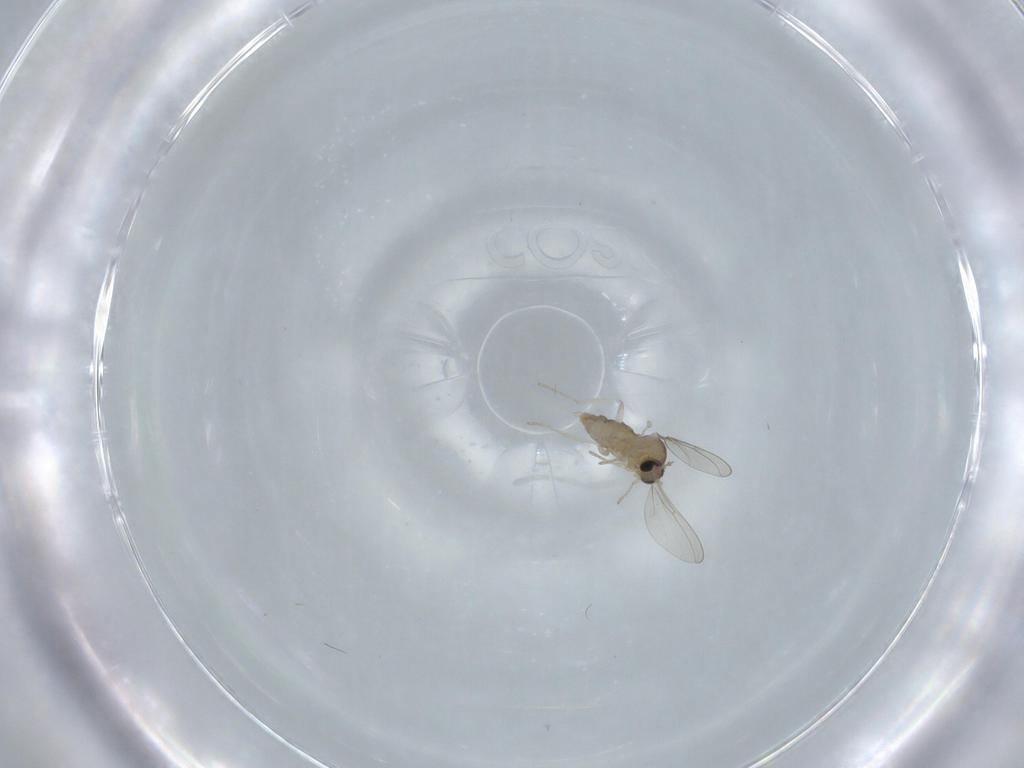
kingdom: Animalia
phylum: Arthropoda
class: Insecta
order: Diptera
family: Cecidomyiidae
